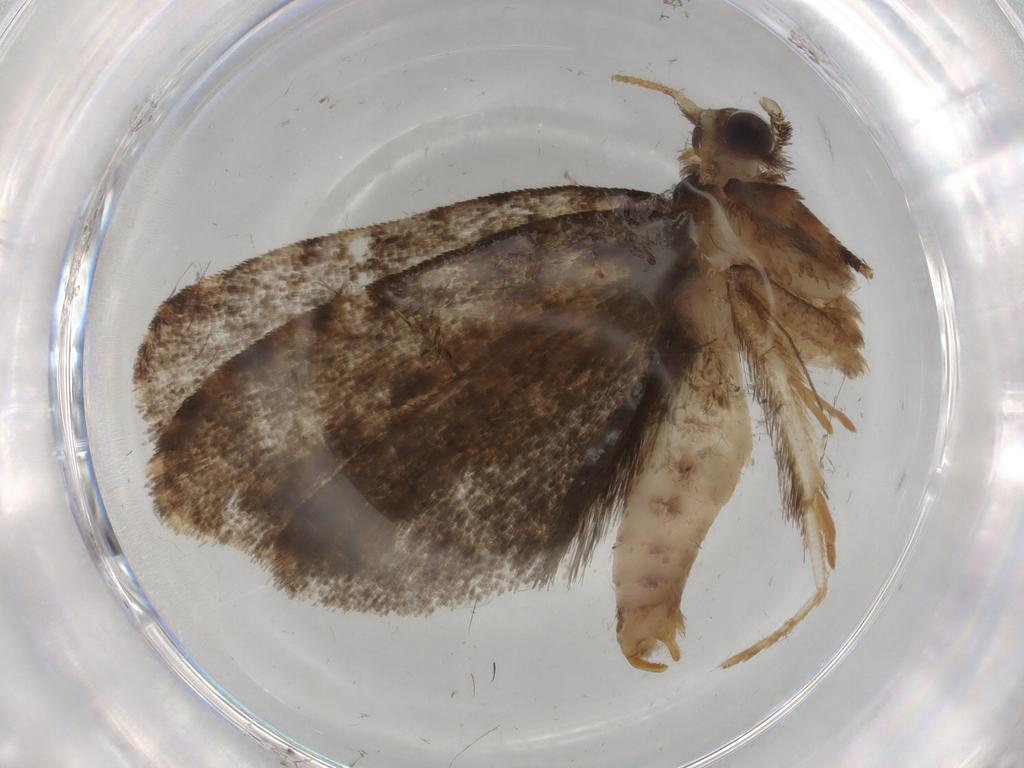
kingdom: Animalia
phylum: Arthropoda
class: Insecta
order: Lepidoptera
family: Tineidae
